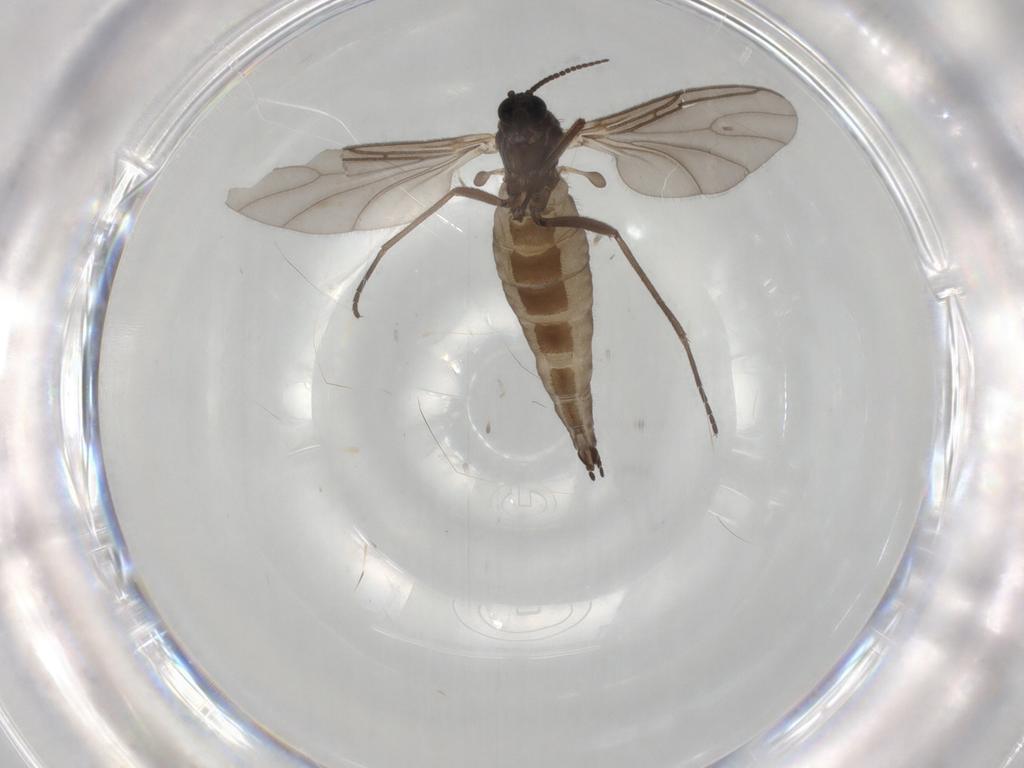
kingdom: Animalia
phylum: Arthropoda
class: Insecta
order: Diptera
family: Sciaridae
